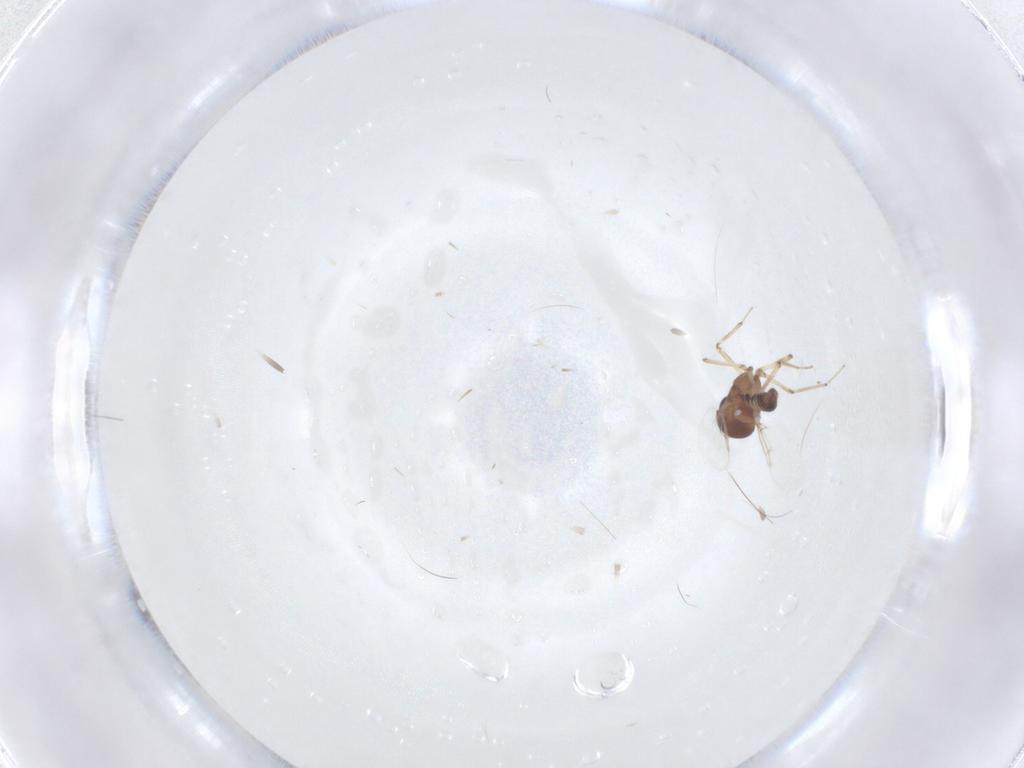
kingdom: Animalia
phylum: Arthropoda
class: Insecta
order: Diptera
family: Ceratopogonidae
